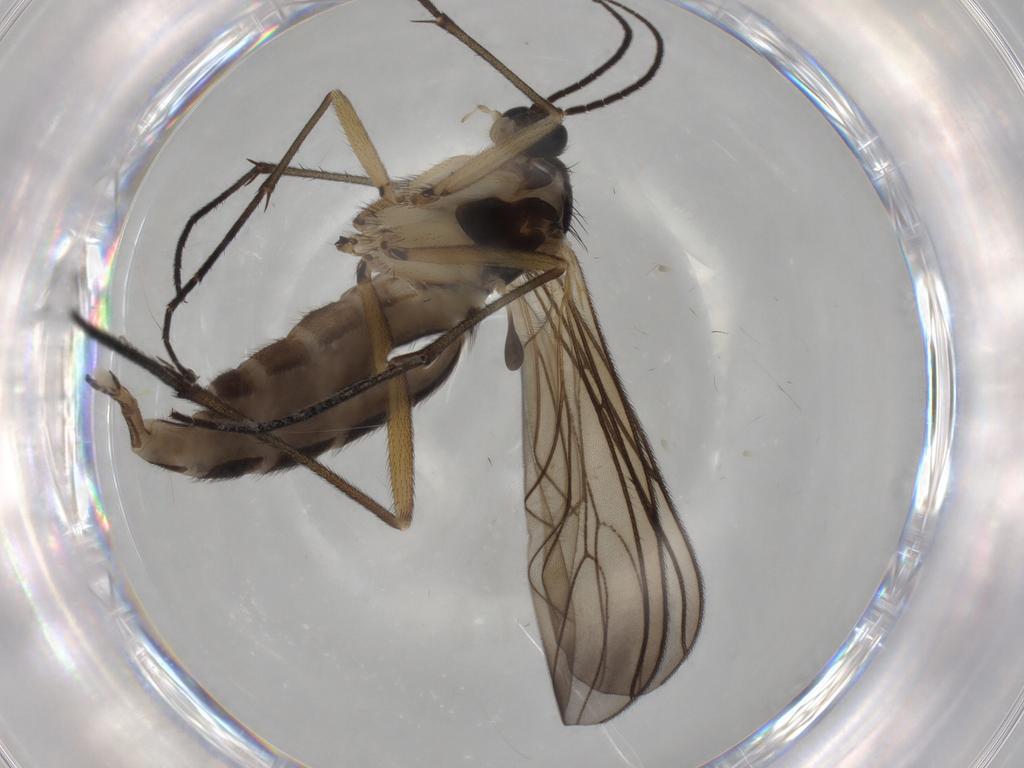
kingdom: Animalia
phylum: Arthropoda
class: Insecta
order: Diptera
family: Sciaridae
